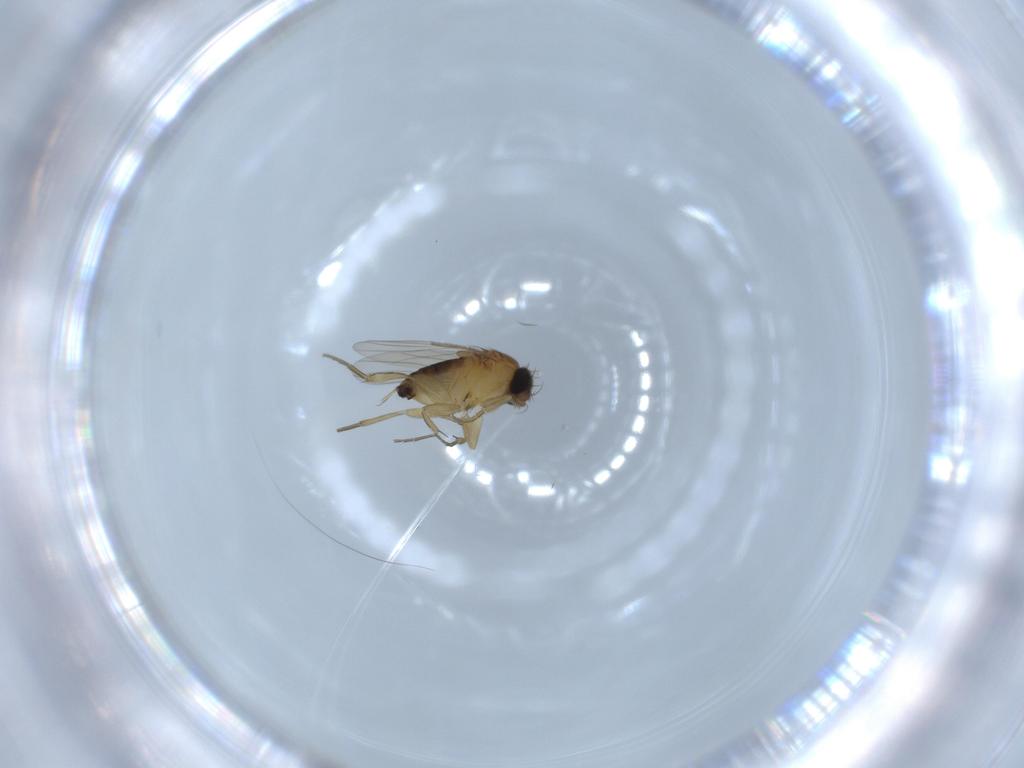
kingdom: Animalia
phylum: Arthropoda
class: Insecta
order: Diptera
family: Phoridae
